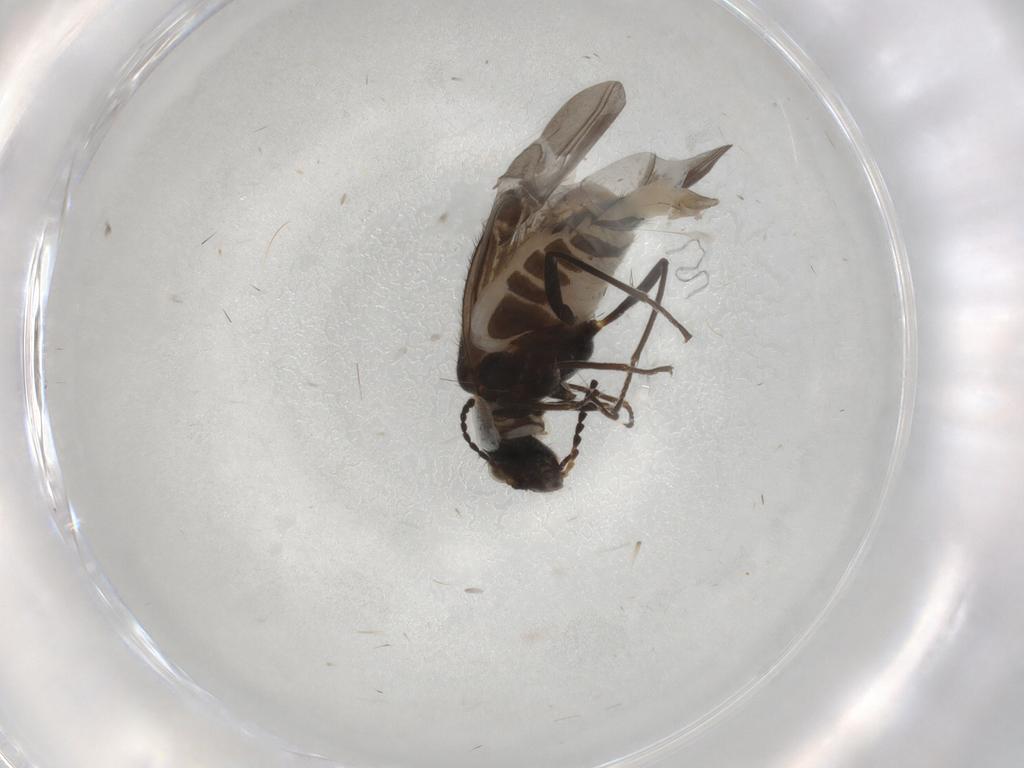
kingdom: Animalia
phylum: Arthropoda
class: Insecta
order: Coleoptera
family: Melyridae
